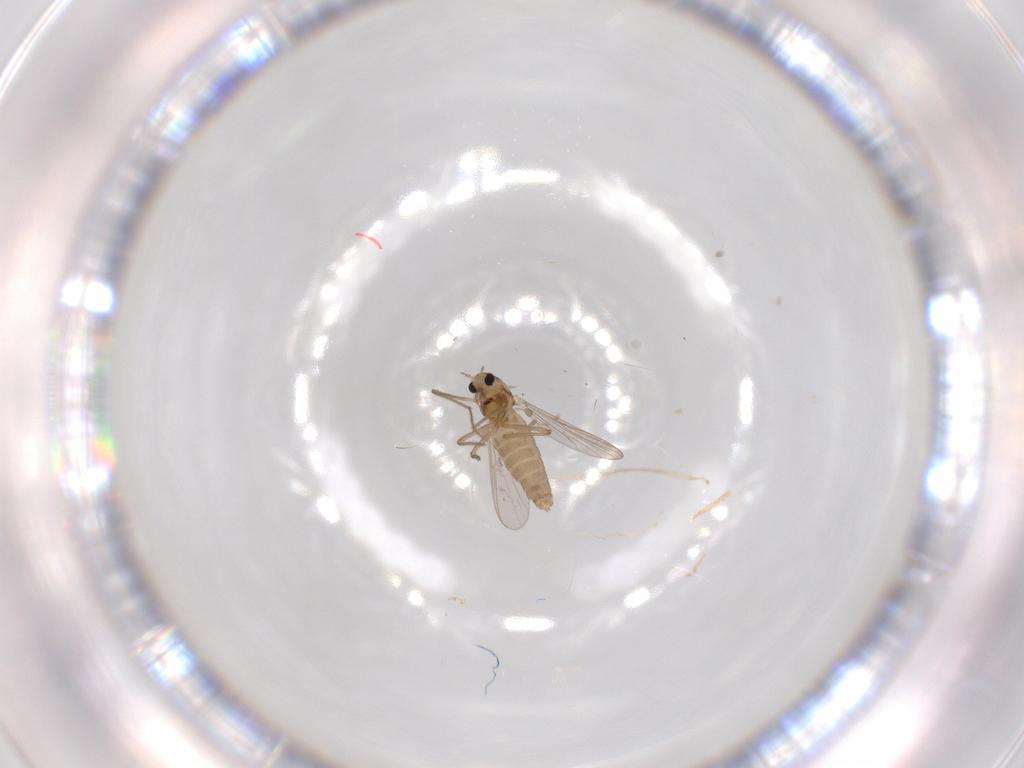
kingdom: Animalia
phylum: Arthropoda
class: Insecta
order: Diptera
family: Chironomidae
